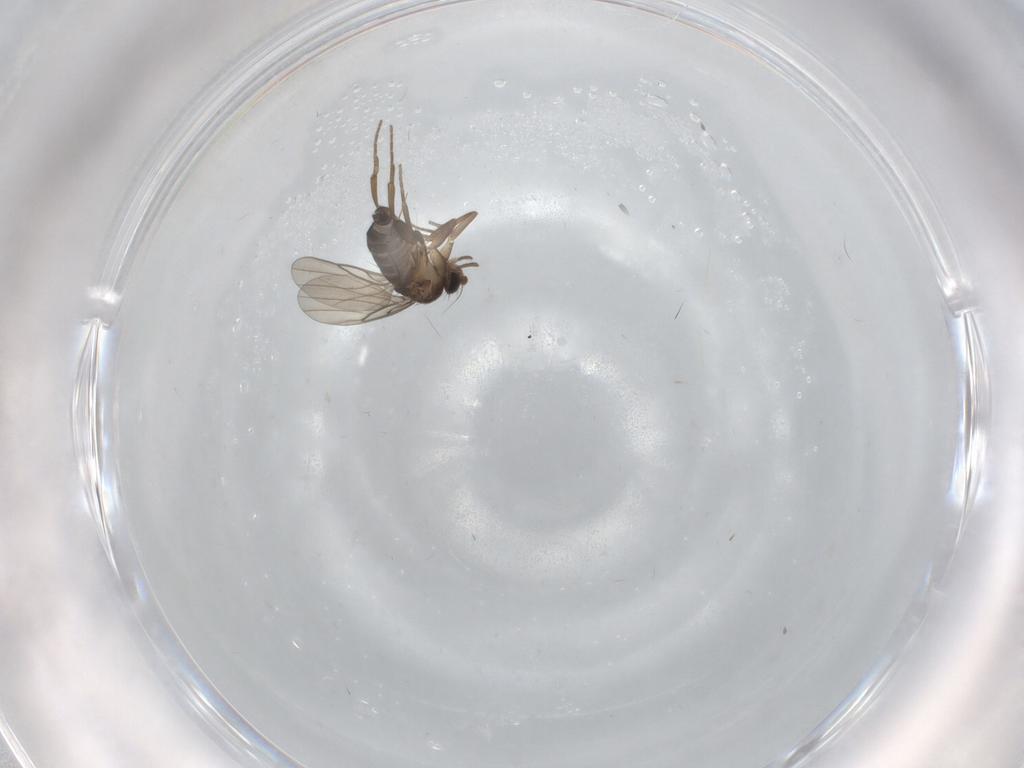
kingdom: Animalia
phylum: Arthropoda
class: Insecta
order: Diptera
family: Phoridae
